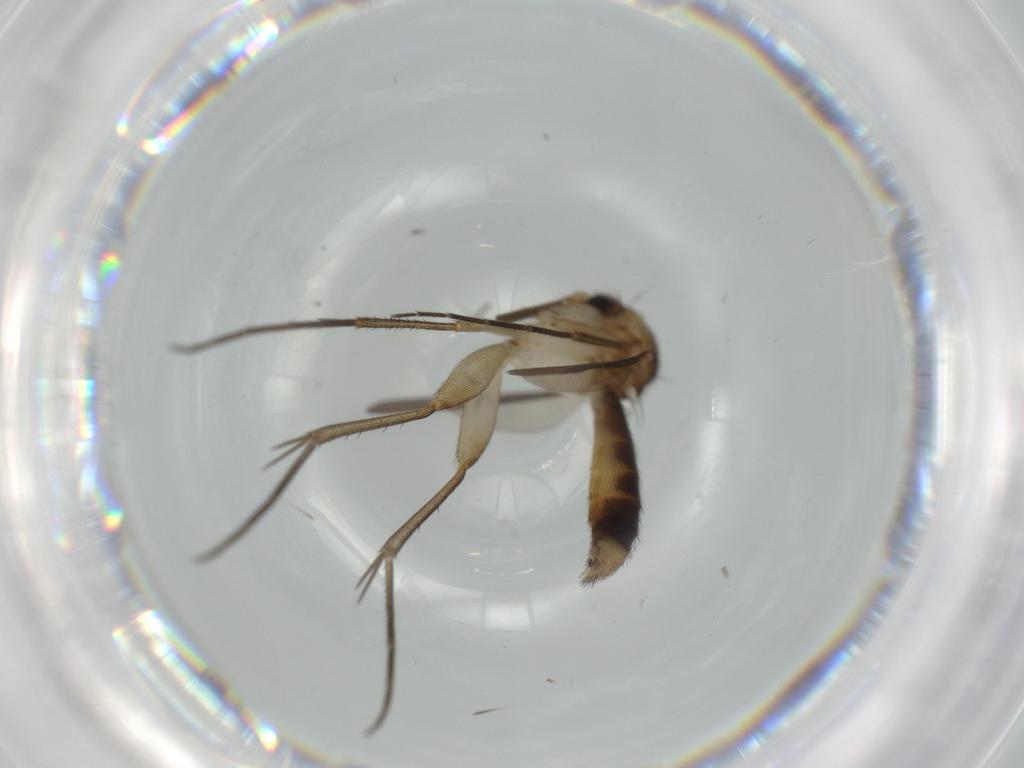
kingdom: Animalia
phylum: Arthropoda
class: Insecta
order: Diptera
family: Mycetophilidae
